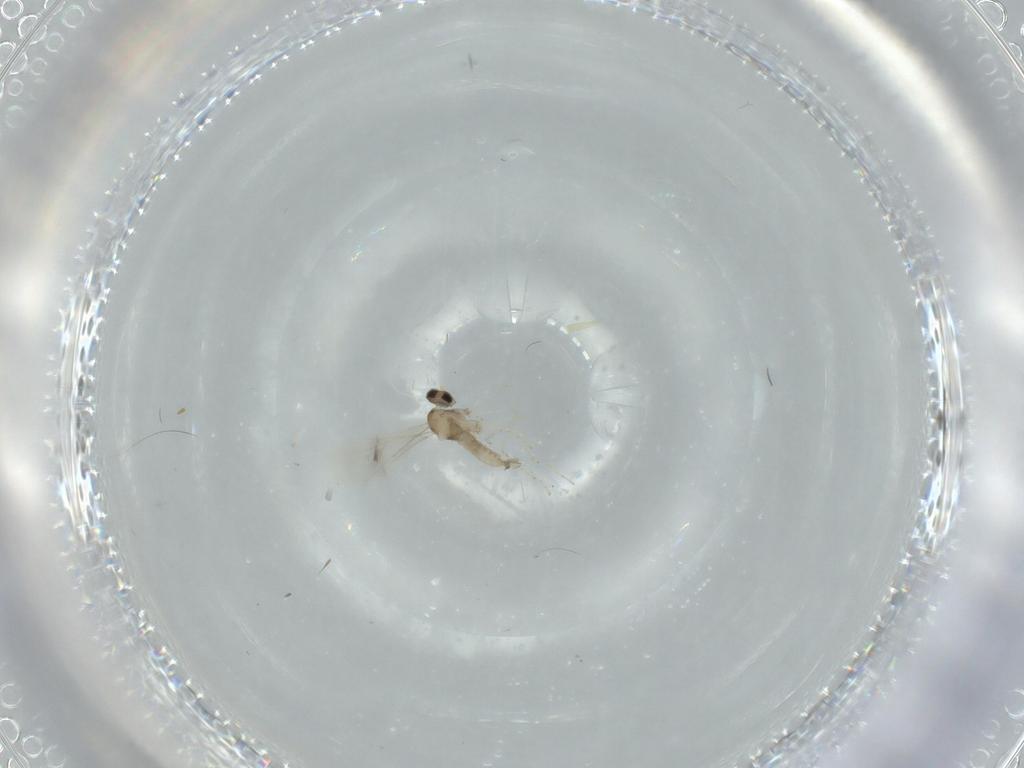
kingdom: Animalia
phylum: Arthropoda
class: Insecta
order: Diptera
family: Cecidomyiidae
